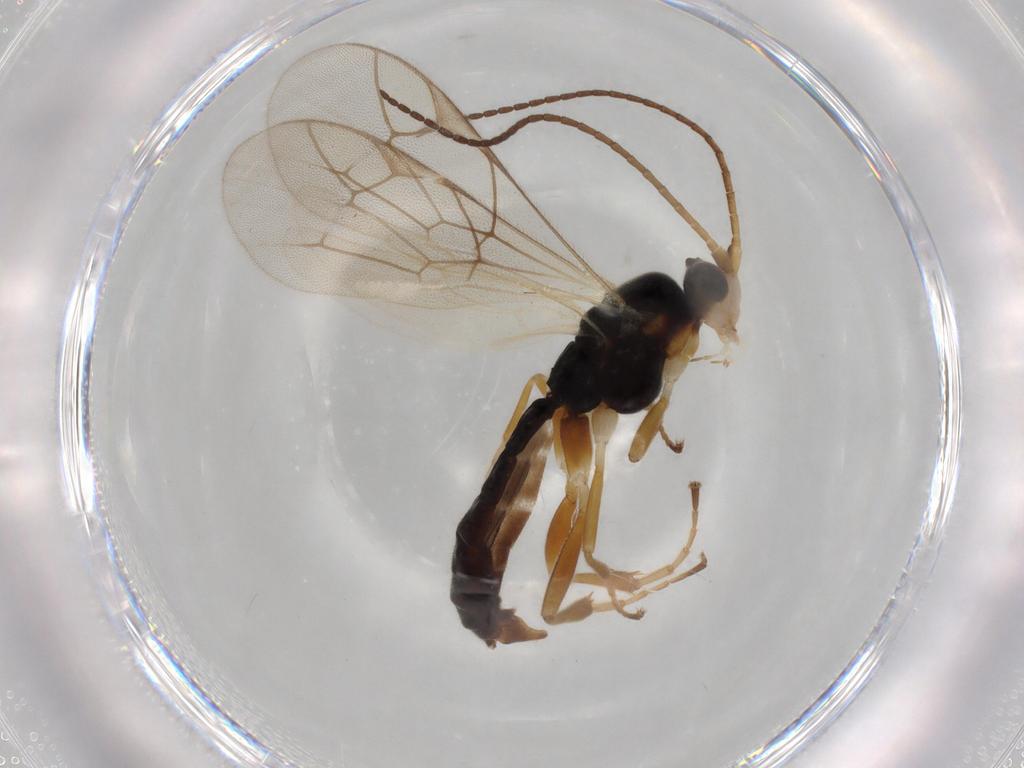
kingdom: Animalia
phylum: Arthropoda
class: Insecta
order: Hymenoptera
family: Ichneumonidae
